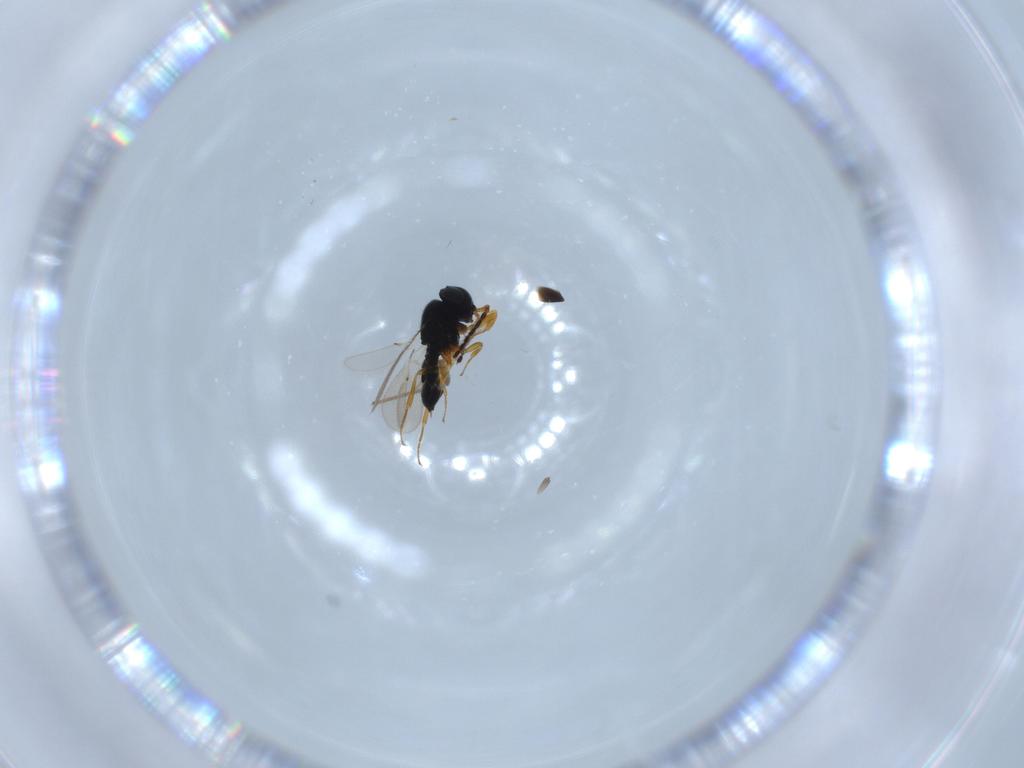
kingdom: Animalia
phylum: Arthropoda
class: Insecta
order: Hymenoptera
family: Scelionidae
